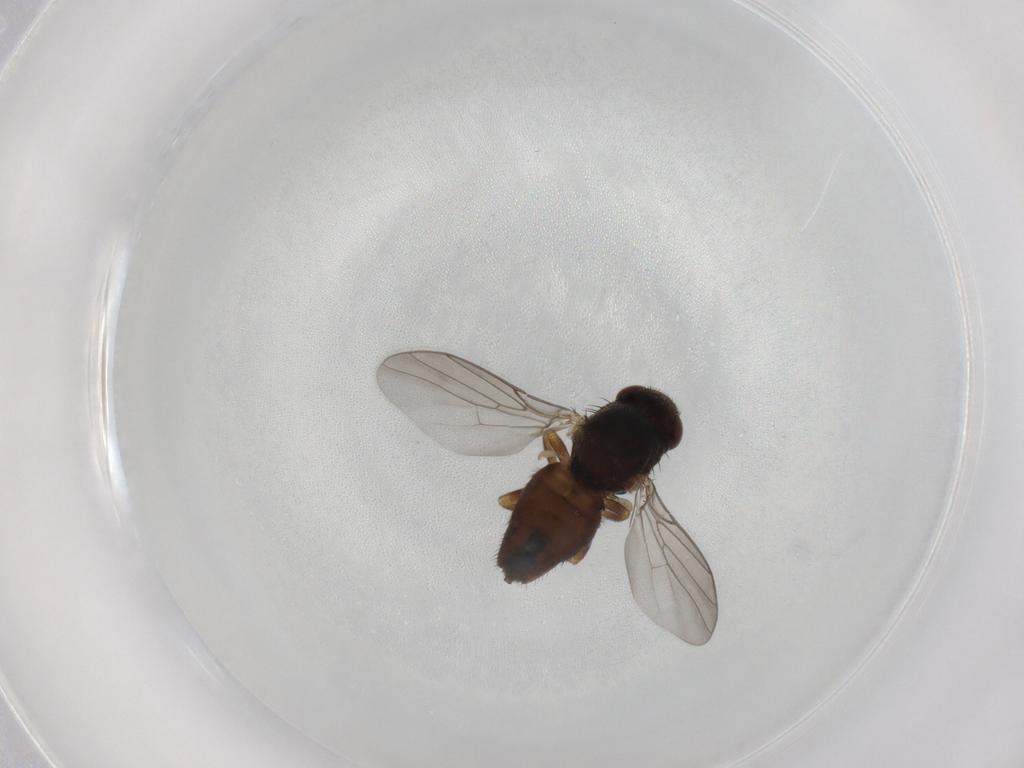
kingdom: Animalia
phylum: Arthropoda
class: Insecta
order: Diptera
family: Chloropidae
